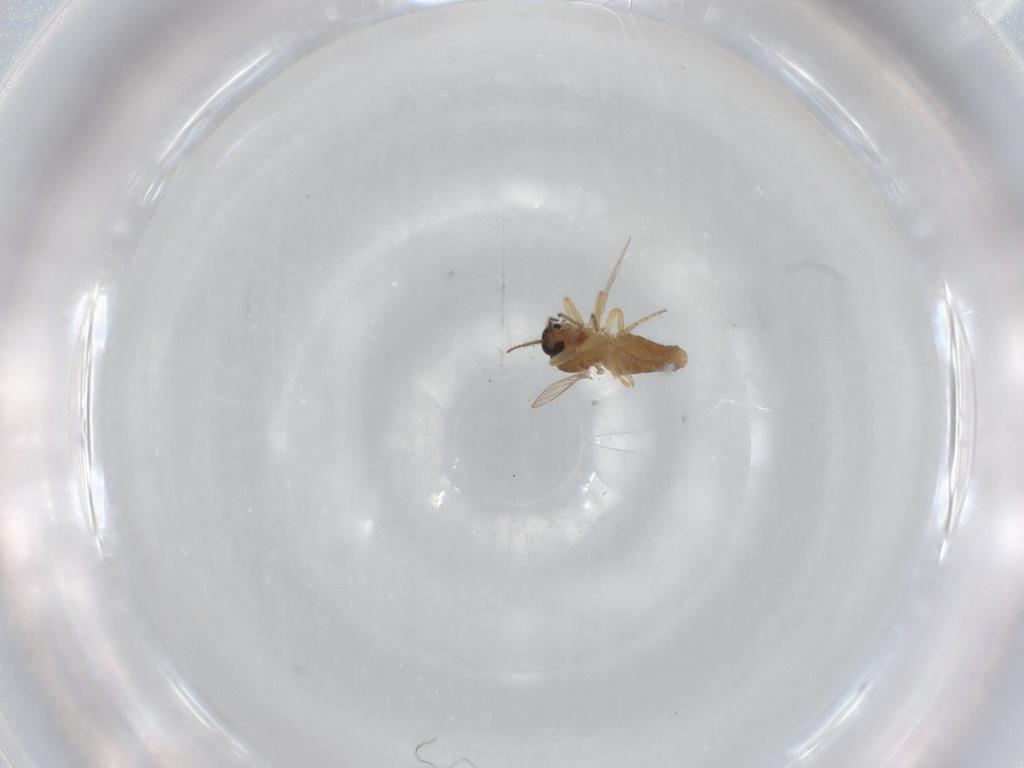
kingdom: Animalia
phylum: Arthropoda
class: Insecta
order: Diptera
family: Ceratopogonidae
